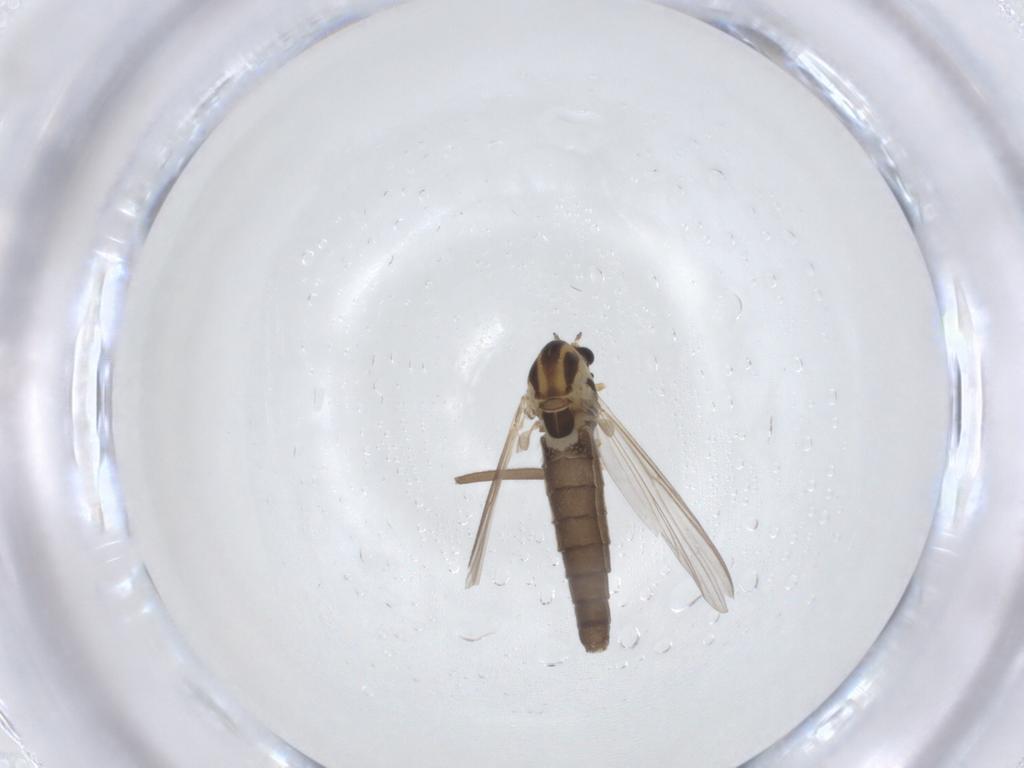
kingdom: Animalia
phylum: Arthropoda
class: Insecta
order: Diptera
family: Chironomidae
